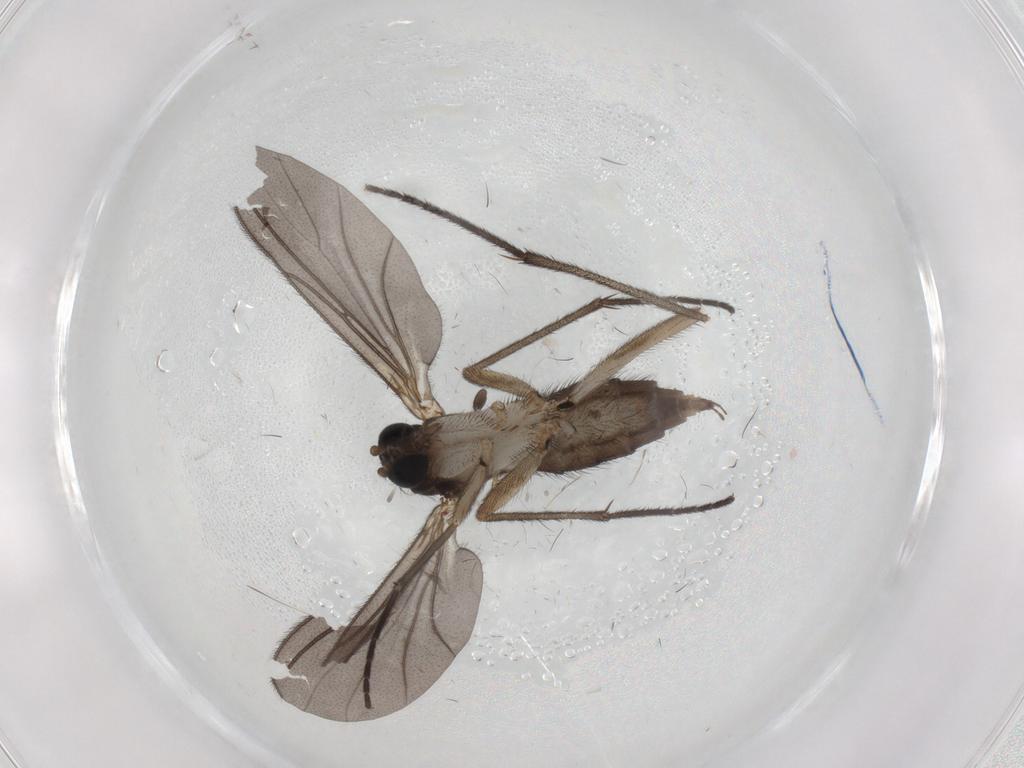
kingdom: Animalia
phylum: Arthropoda
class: Insecta
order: Diptera
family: Sciaridae
